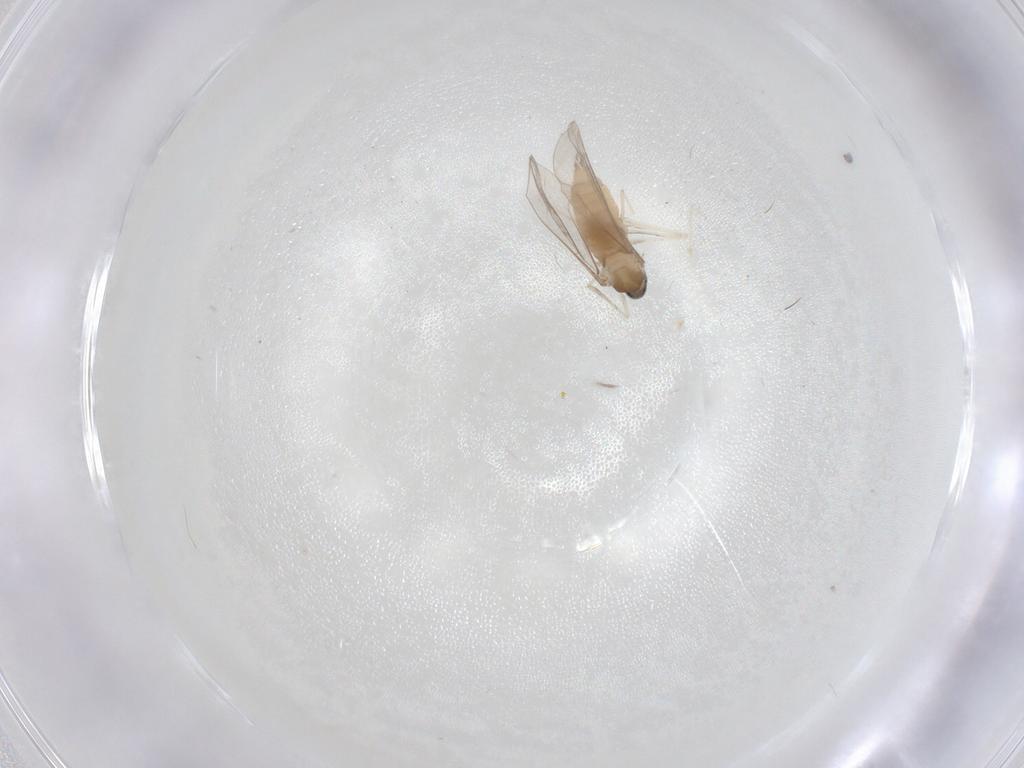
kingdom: Animalia
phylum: Arthropoda
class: Insecta
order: Diptera
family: Cecidomyiidae
